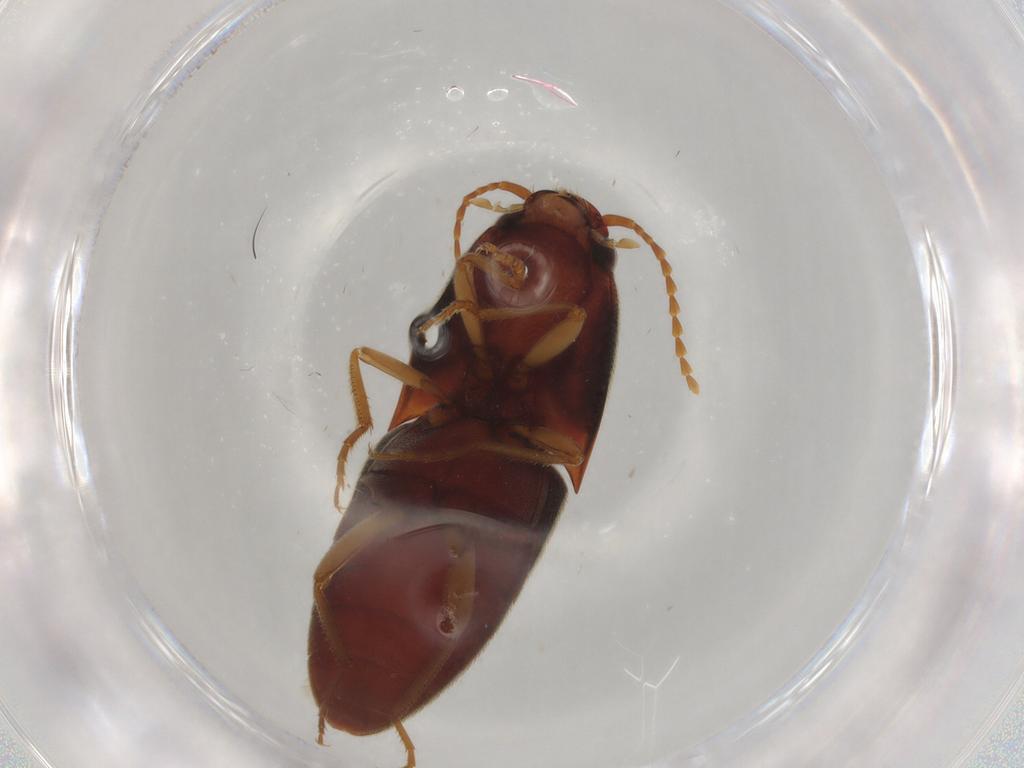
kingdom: Animalia
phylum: Arthropoda
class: Insecta
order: Coleoptera
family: Elateridae
